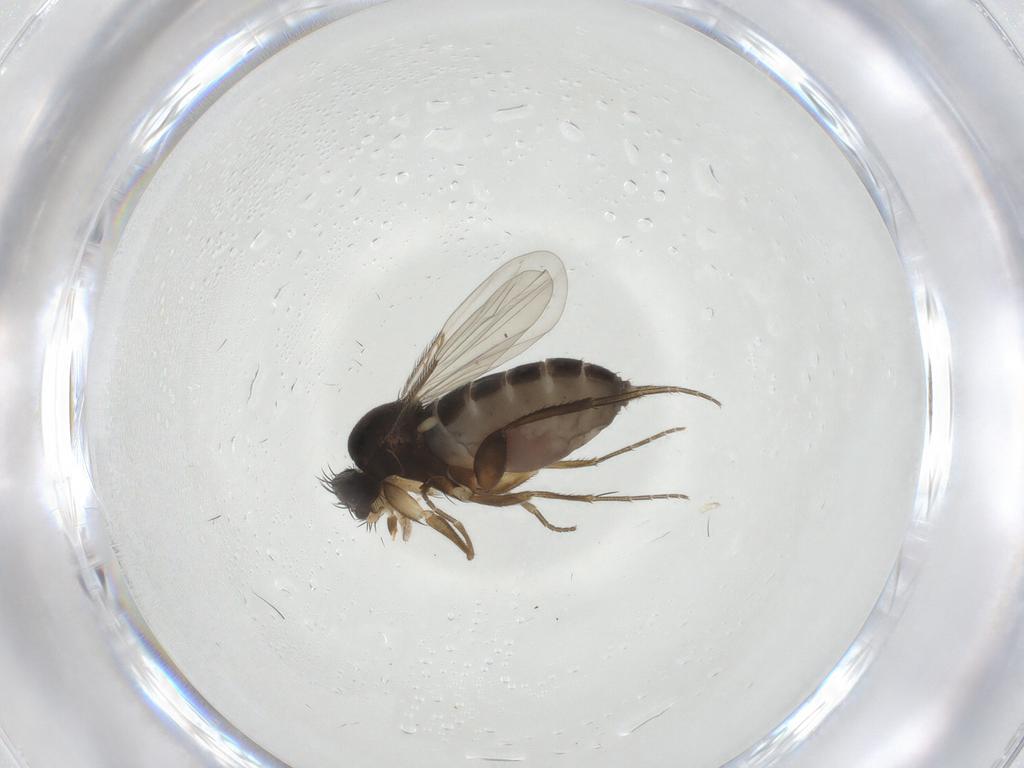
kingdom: Animalia
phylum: Arthropoda
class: Insecta
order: Diptera
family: Phoridae
